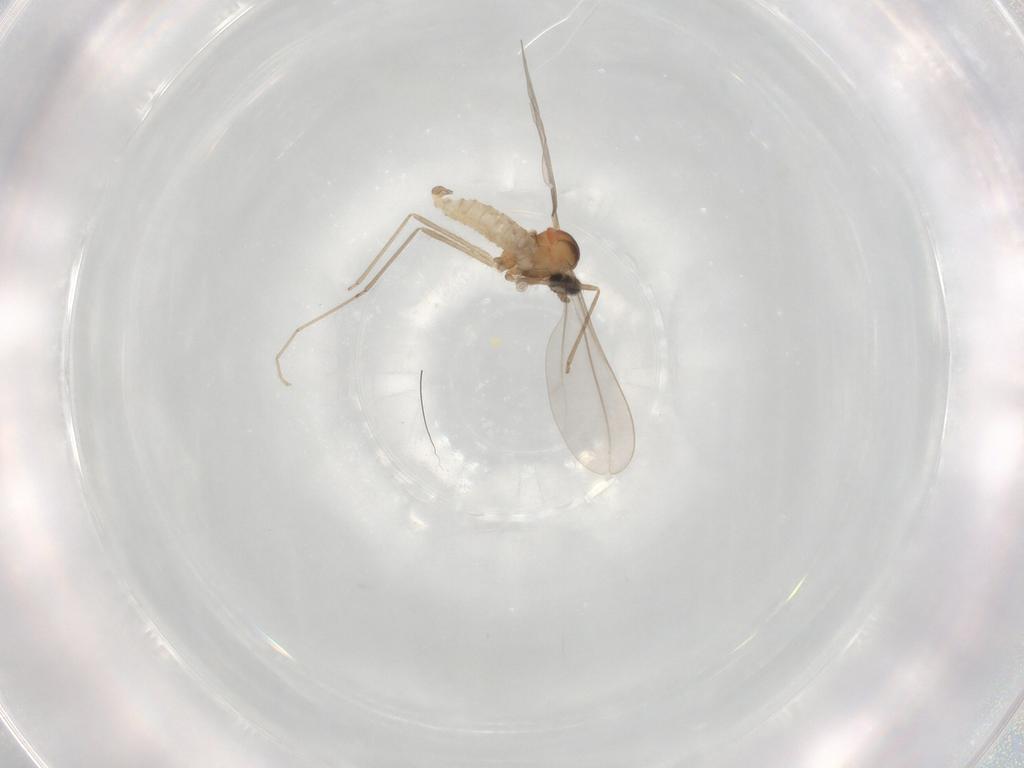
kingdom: Animalia
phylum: Arthropoda
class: Insecta
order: Diptera
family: Cecidomyiidae
